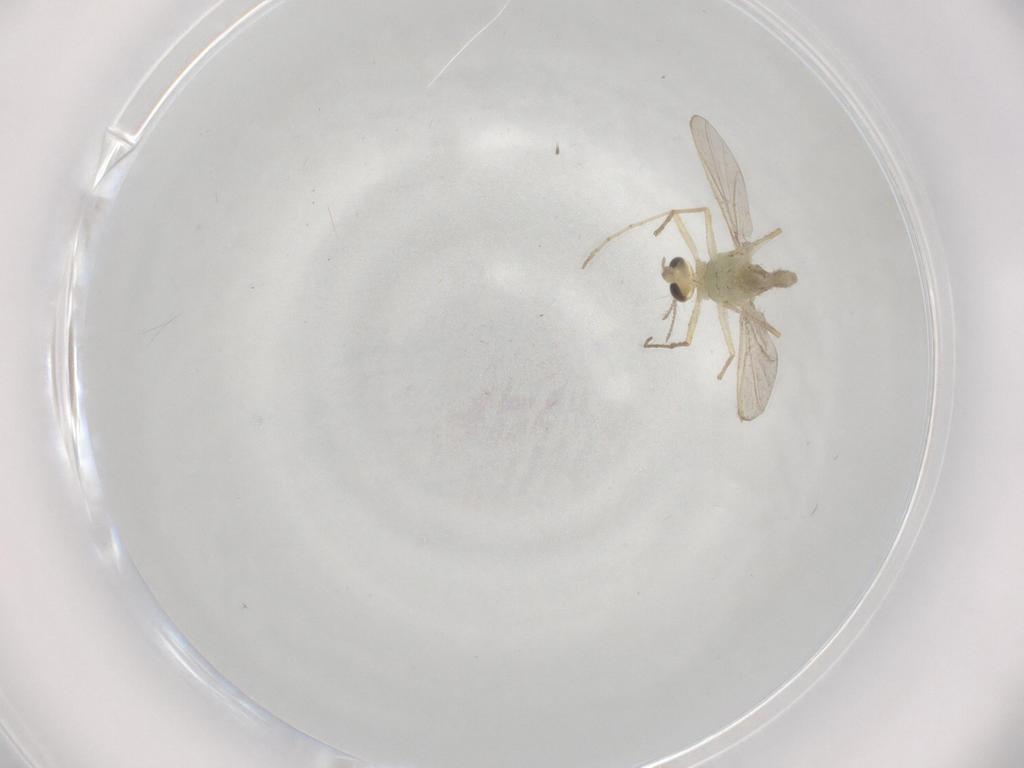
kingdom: Animalia
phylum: Arthropoda
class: Insecta
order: Diptera
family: Chironomidae
